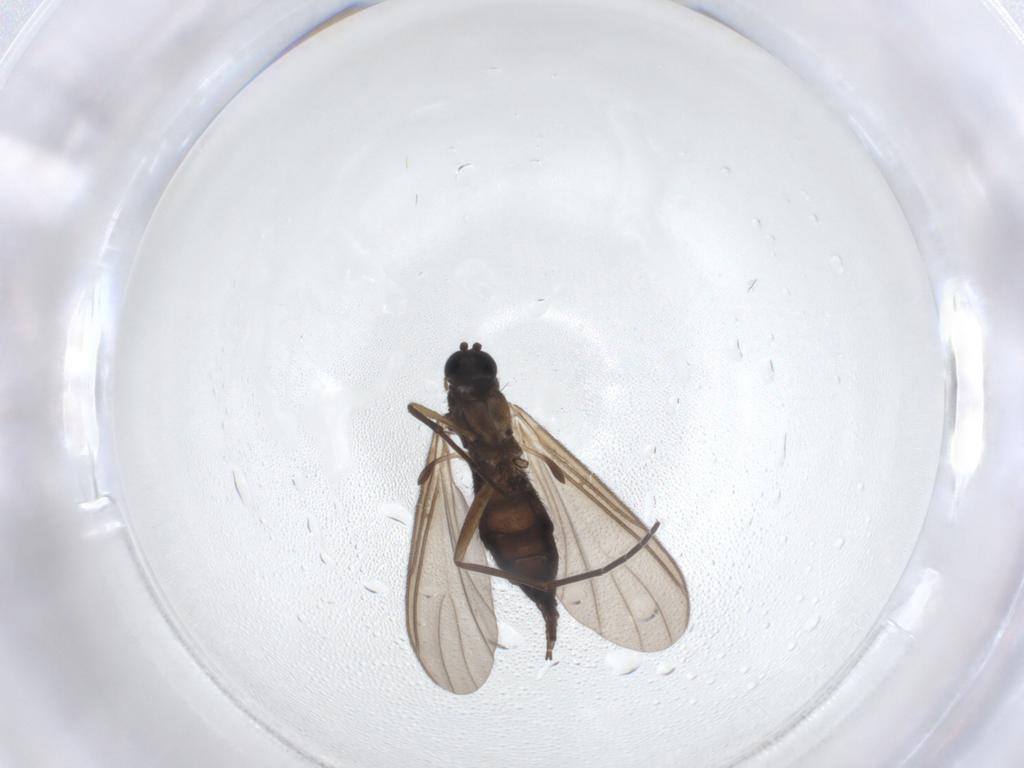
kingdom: Animalia
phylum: Arthropoda
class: Insecta
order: Diptera
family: Sciaridae
